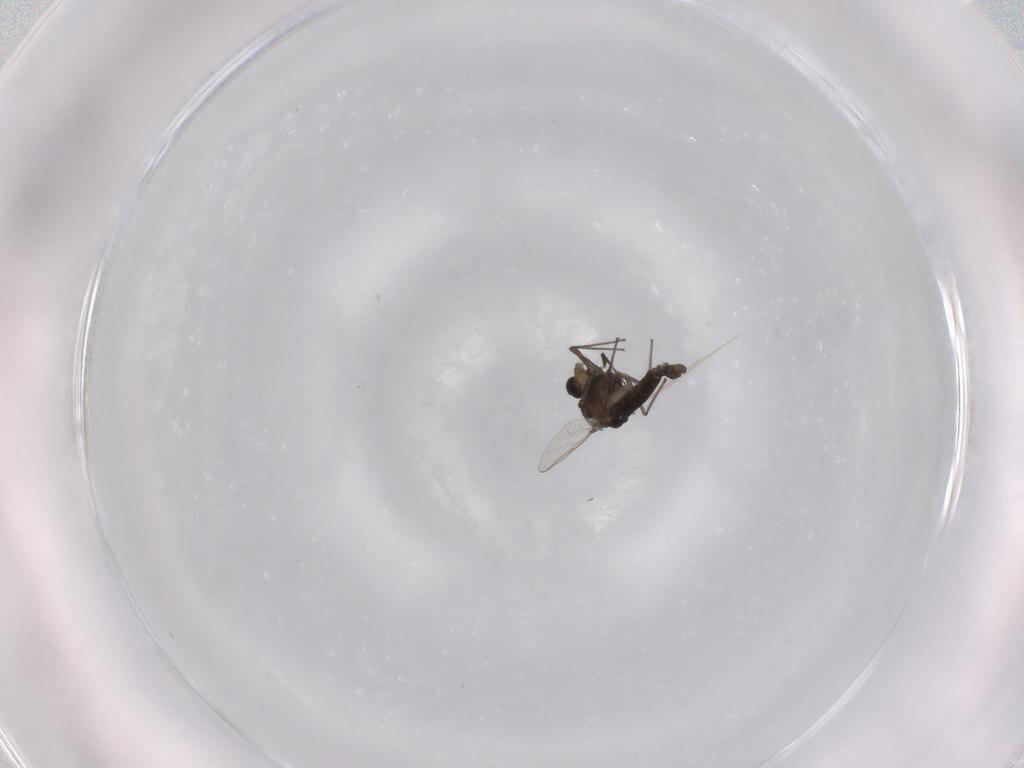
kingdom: Animalia
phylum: Arthropoda
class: Insecta
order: Diptera
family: Chironomidae
